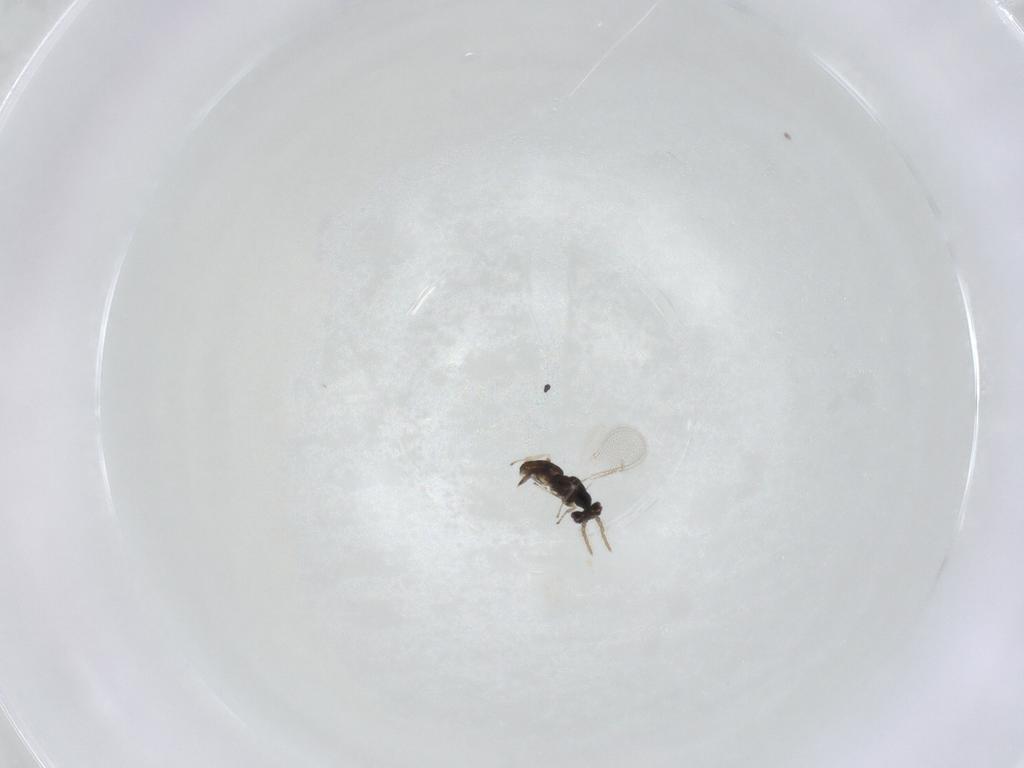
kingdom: Animalia
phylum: Arthropoda
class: Insecta
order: Hymenoptera
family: Eulophidae
